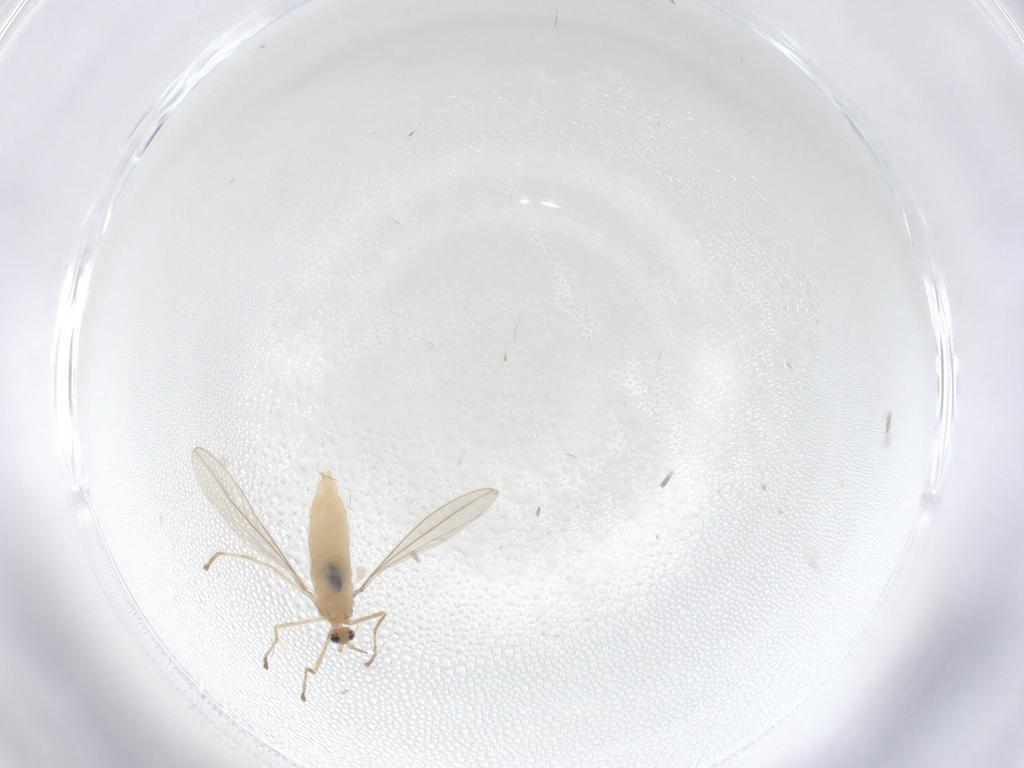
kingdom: Animalia
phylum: Arthropoda
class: Insecta
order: Diptera
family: Cecidomyiidae
